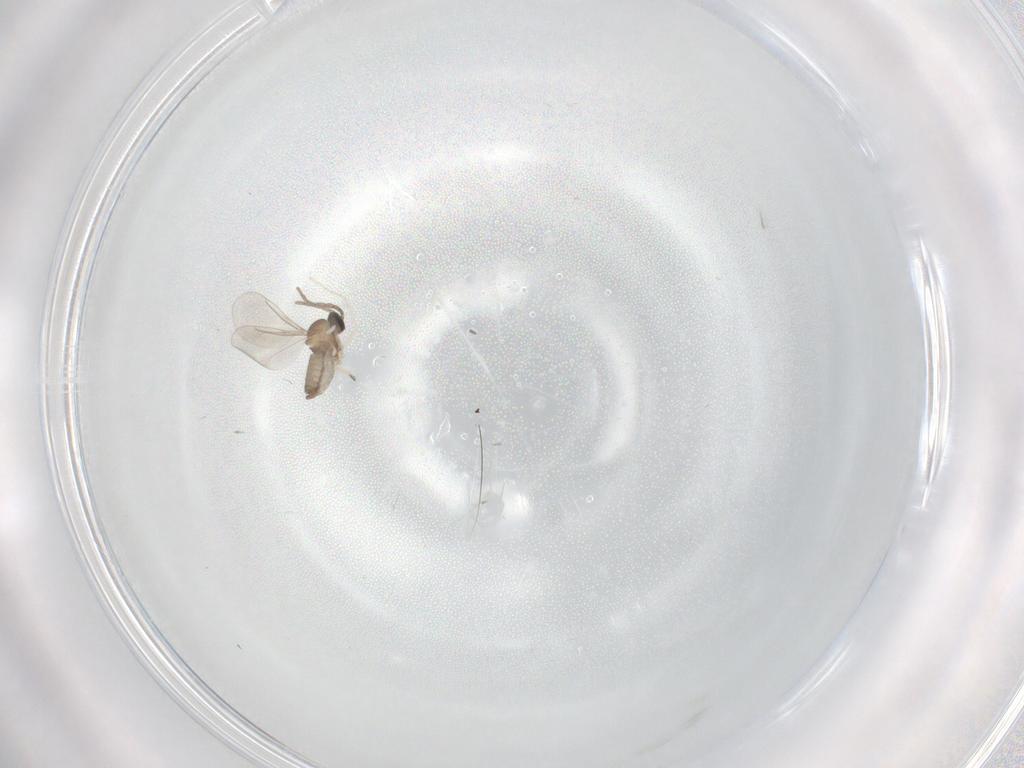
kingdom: Animalia
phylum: Arthropoda
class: Insecta
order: Diptera
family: Cecidomyiidae
